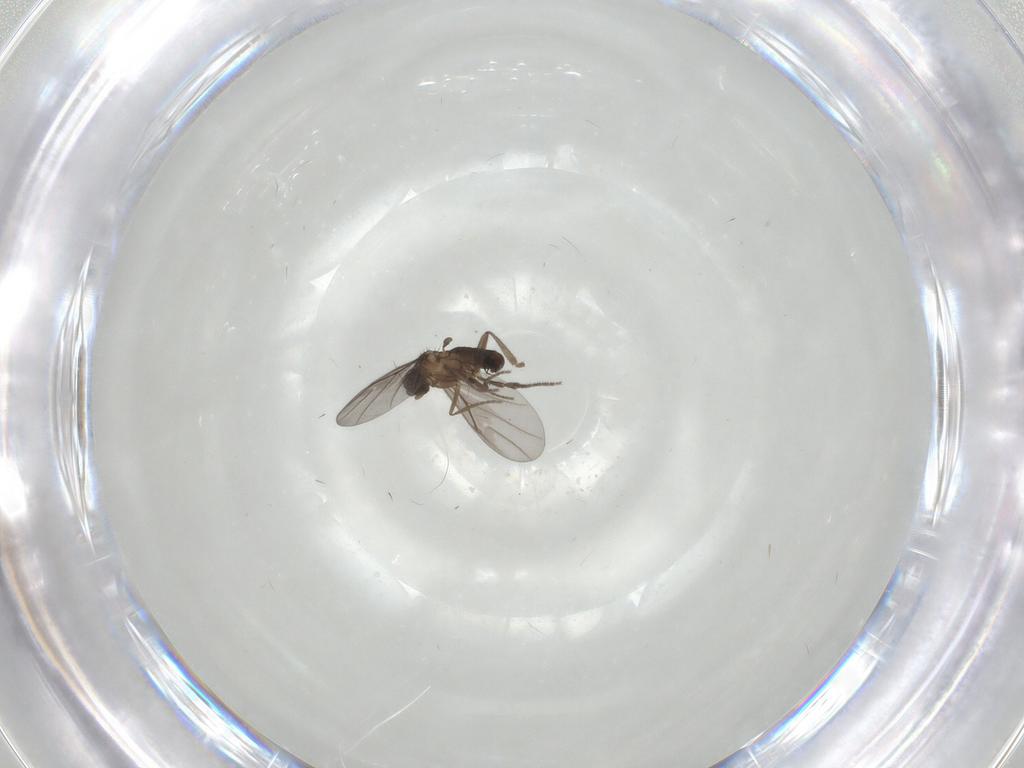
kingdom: Animalia
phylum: Arthropoda
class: Insecta
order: Diptera
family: Phoridae
